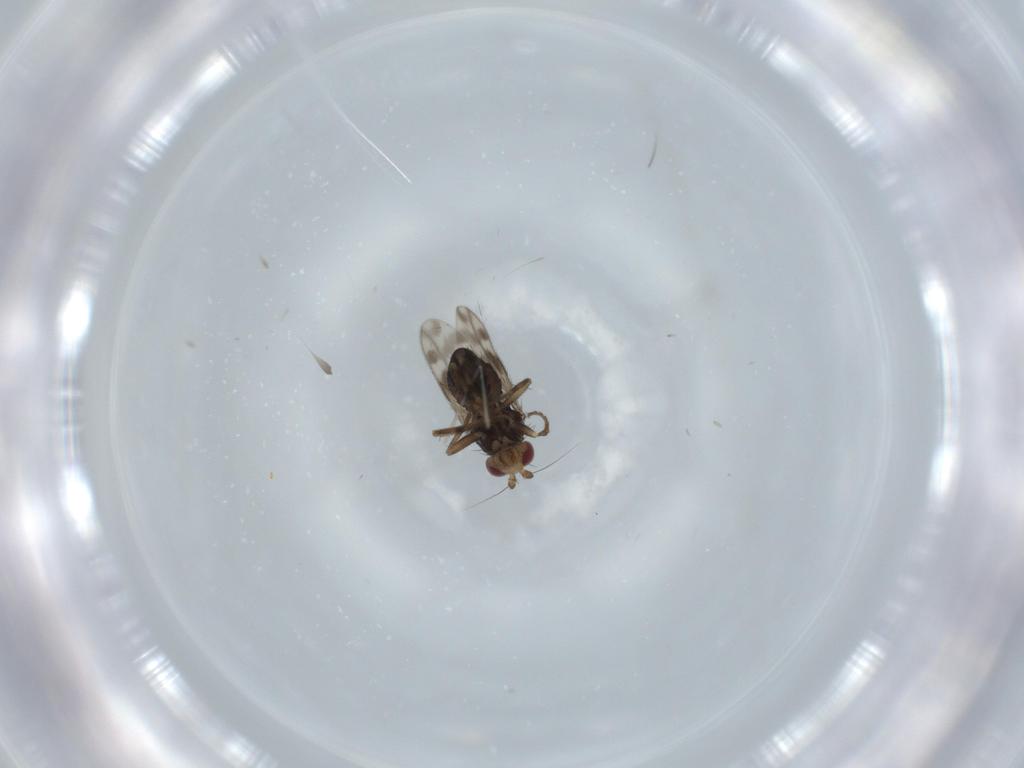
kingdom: Animalia
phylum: Arthropoda
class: Insecta
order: Diptera
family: Sphaeroceridae
